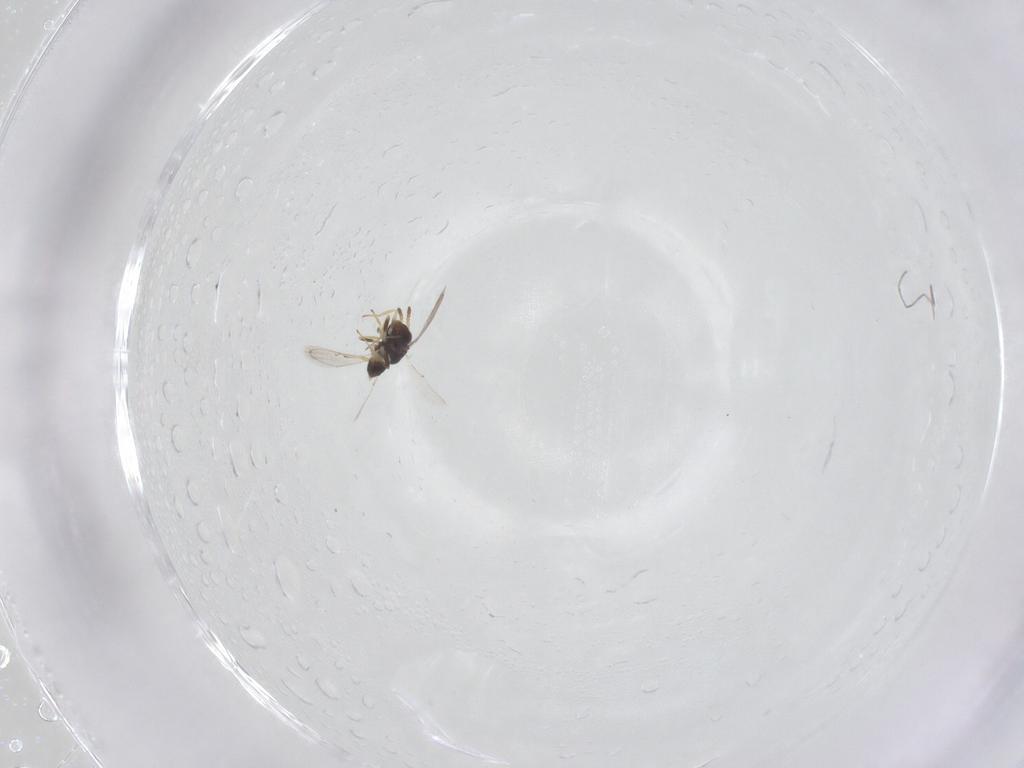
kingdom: Animalia
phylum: Arthropoda
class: Insecta
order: Hymenoptera
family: Eulophidae
